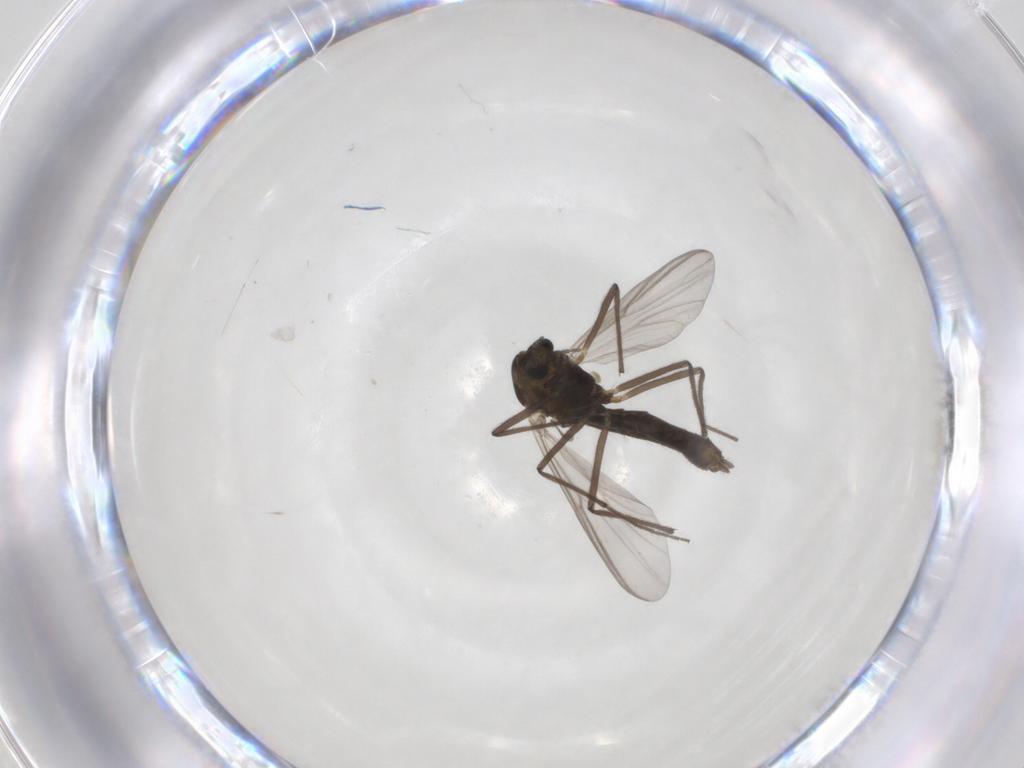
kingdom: Animalia
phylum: Arthropoda
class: Insecta
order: Diptera
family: Chironomidae
